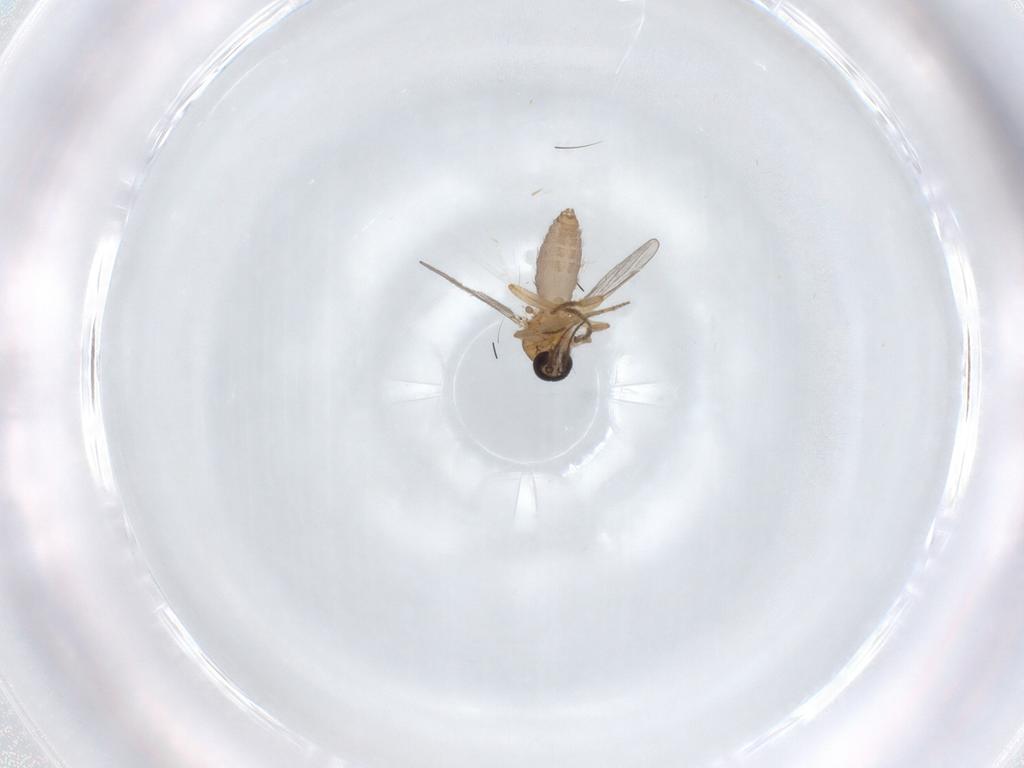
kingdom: Animalia
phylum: Arthropoda
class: Insecta
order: Diptera
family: Ceratopogonidae
